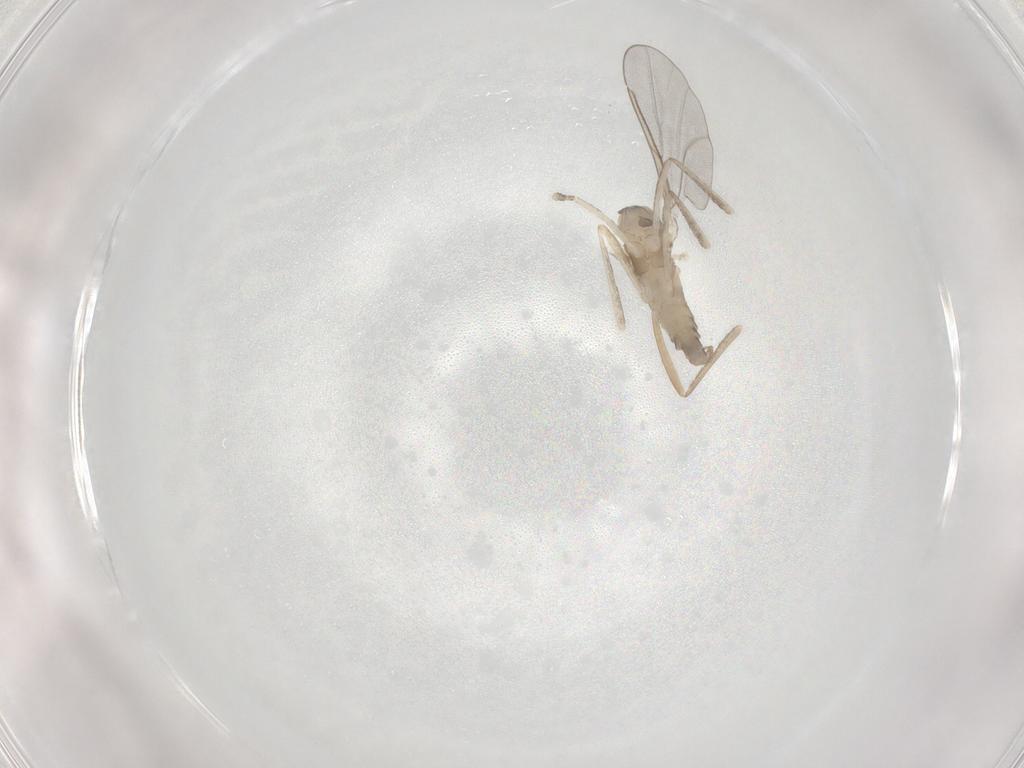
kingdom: Animalia
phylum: Arthropoda
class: Insecta
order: Diptera
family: Cecidomyiidae
